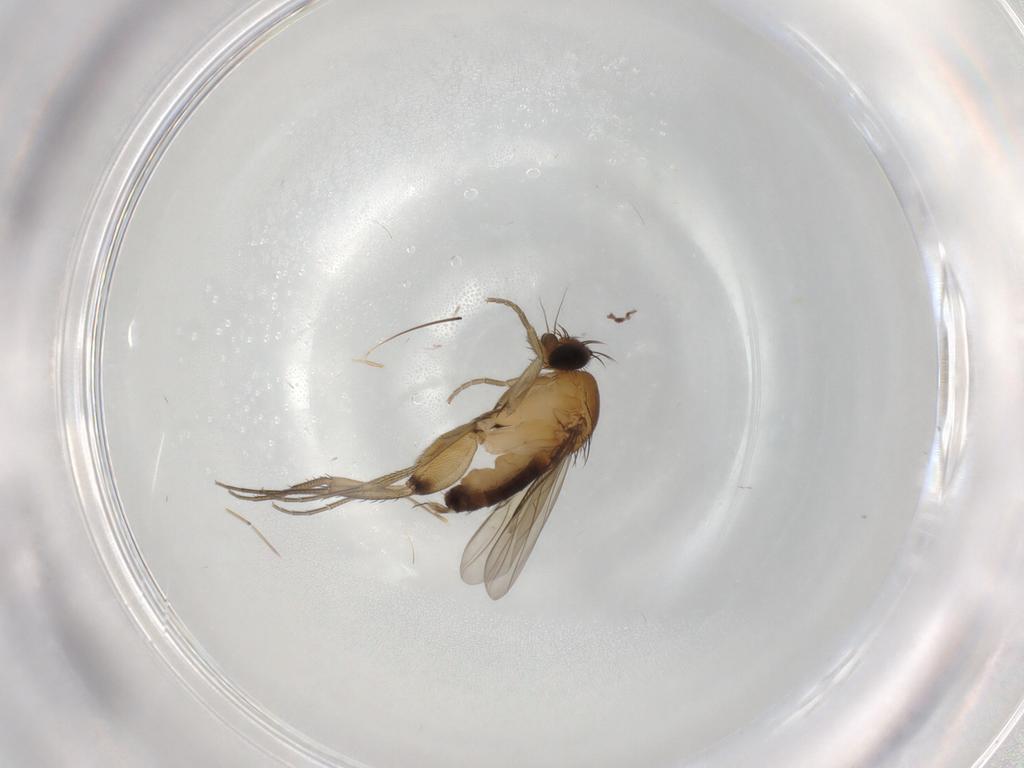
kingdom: Animalia
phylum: Arthropoda
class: Insecta
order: Diptera
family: Phoridae
